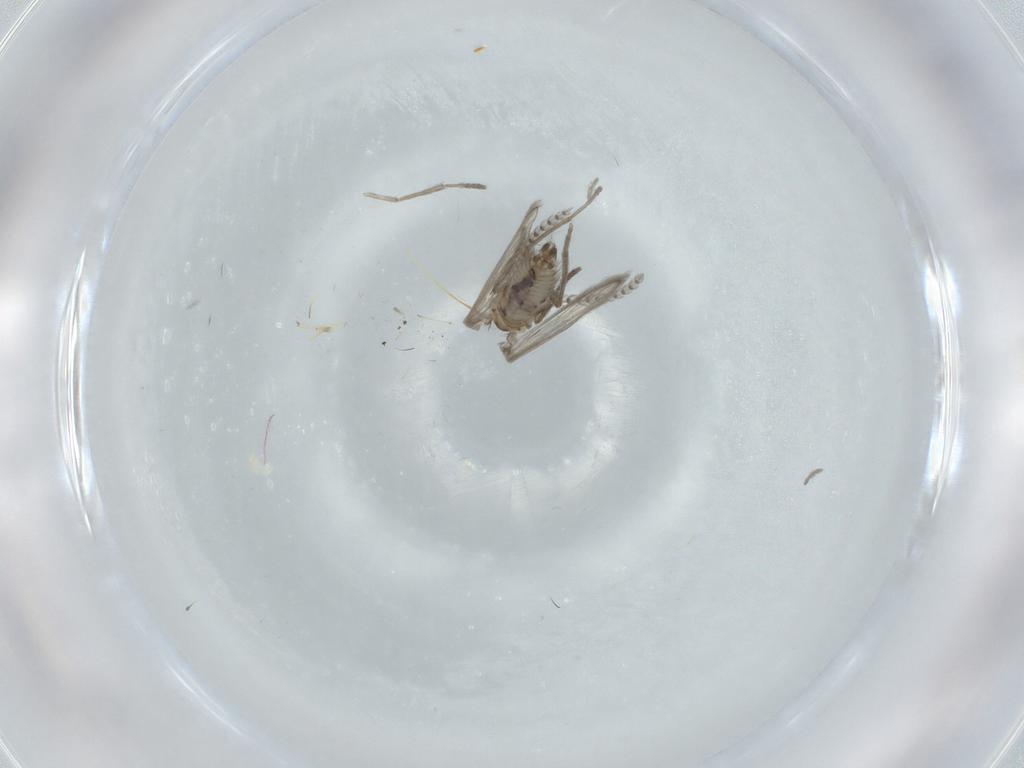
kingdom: Animalia
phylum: Arthropoda
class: Insecta
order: Diptera
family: Psychodidae
